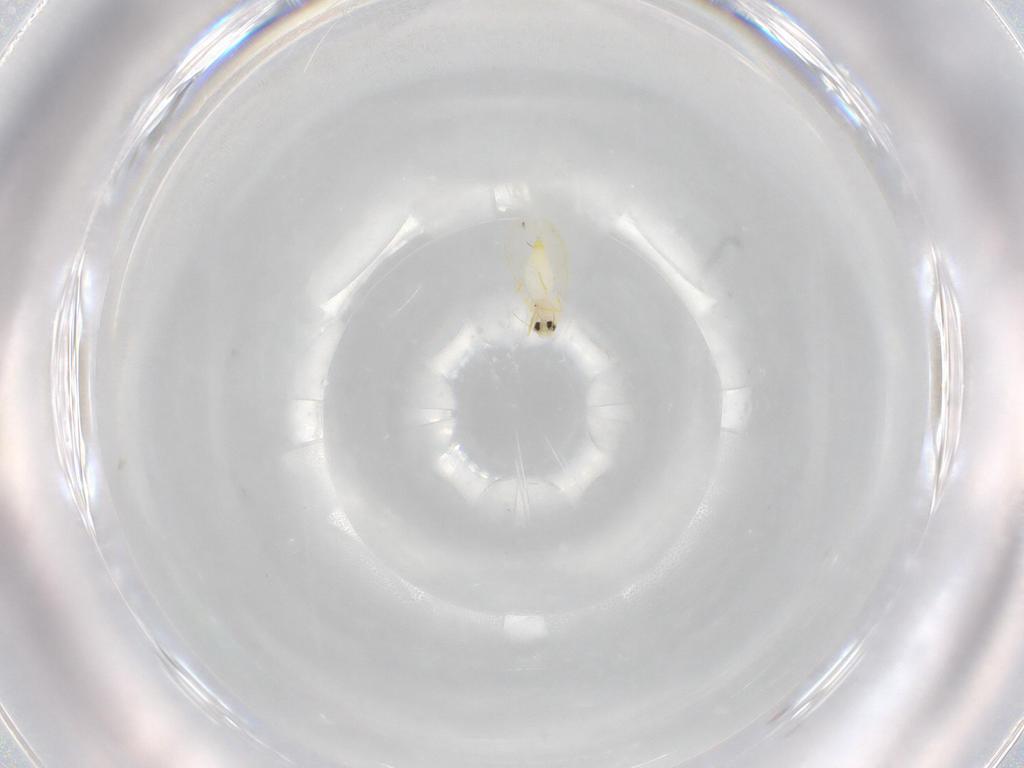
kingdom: Animalia
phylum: Arthropoda
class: Insecta
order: Hemiptera
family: Aleyrodidae
